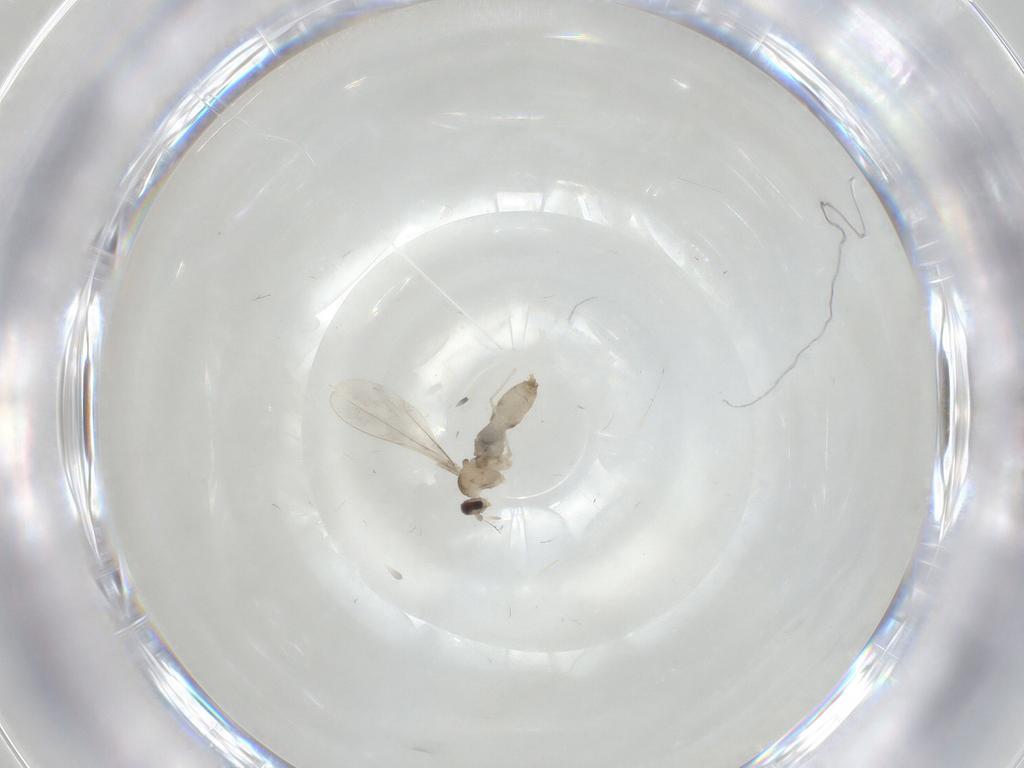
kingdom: Animalia
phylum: Arthropoda
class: Insecta
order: Diptera
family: Cecidomyiidae
